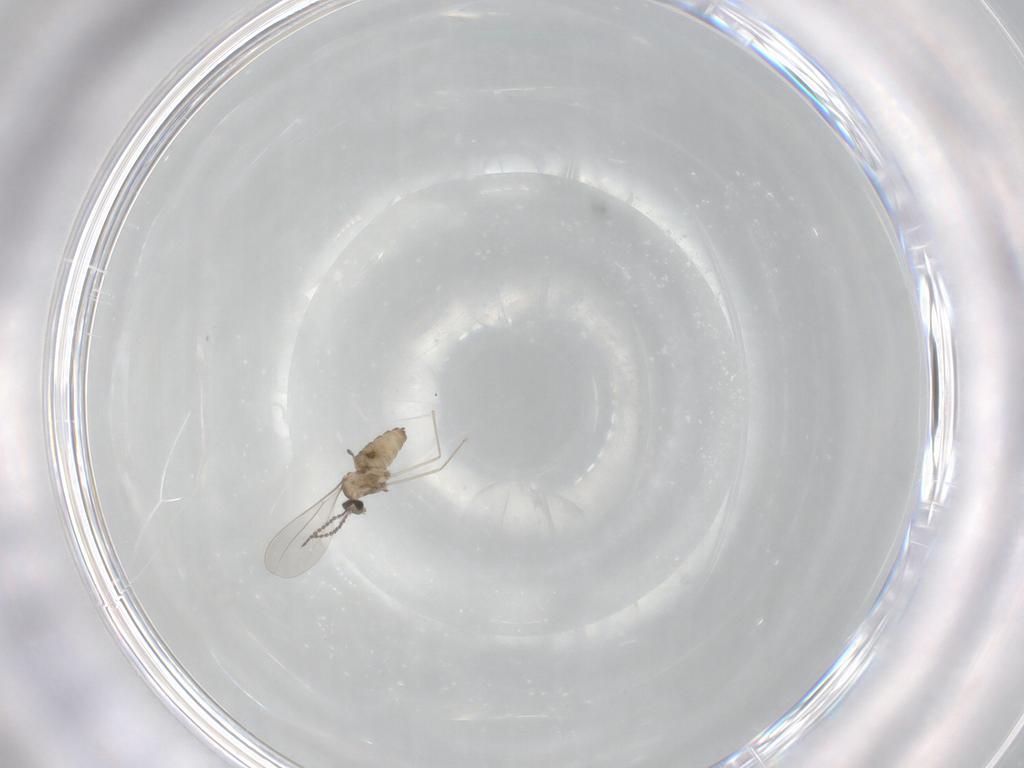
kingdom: Animalia
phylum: Arthropoda
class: Insecta
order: Diptera
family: Cecidomyiidae
